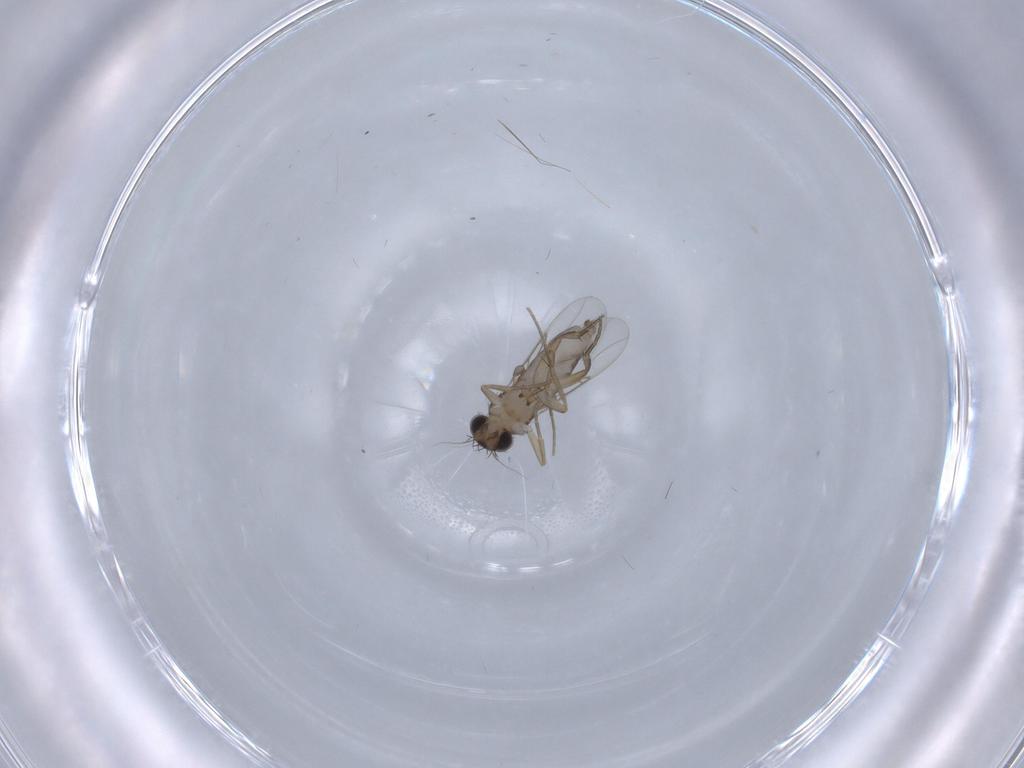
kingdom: Animalia
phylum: Arthropoda
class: Insecta
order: Diptera
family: Phoridae
